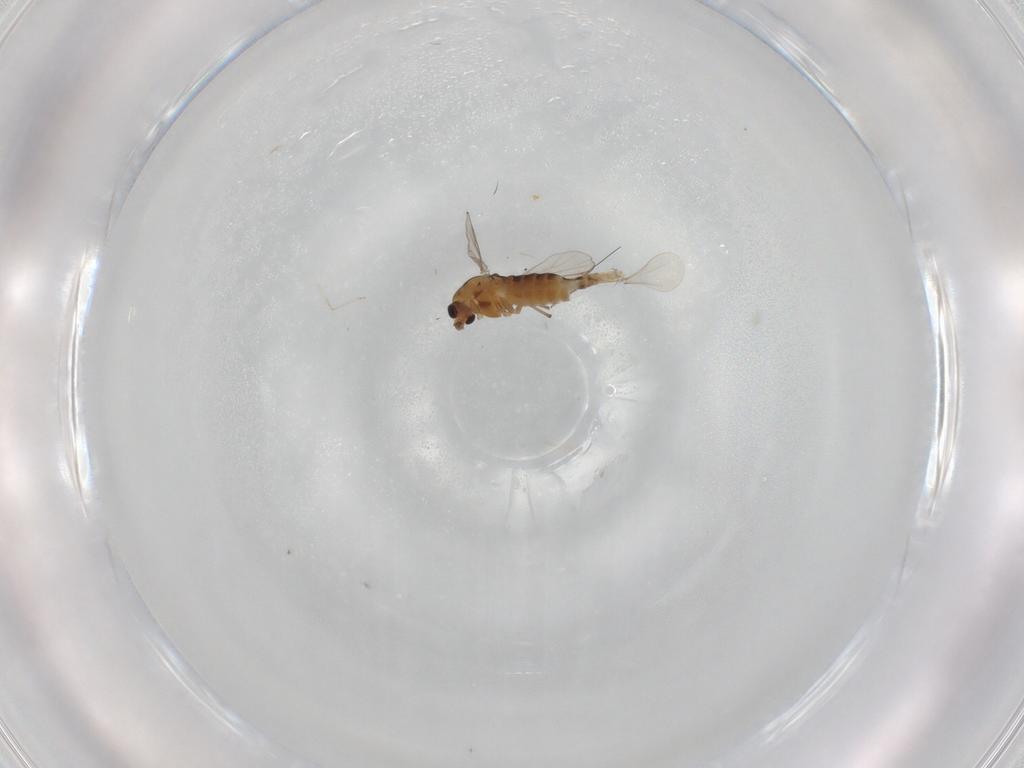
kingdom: Animalia
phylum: Arthropoda
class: Insecta
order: Diptera
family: Chironomidae
